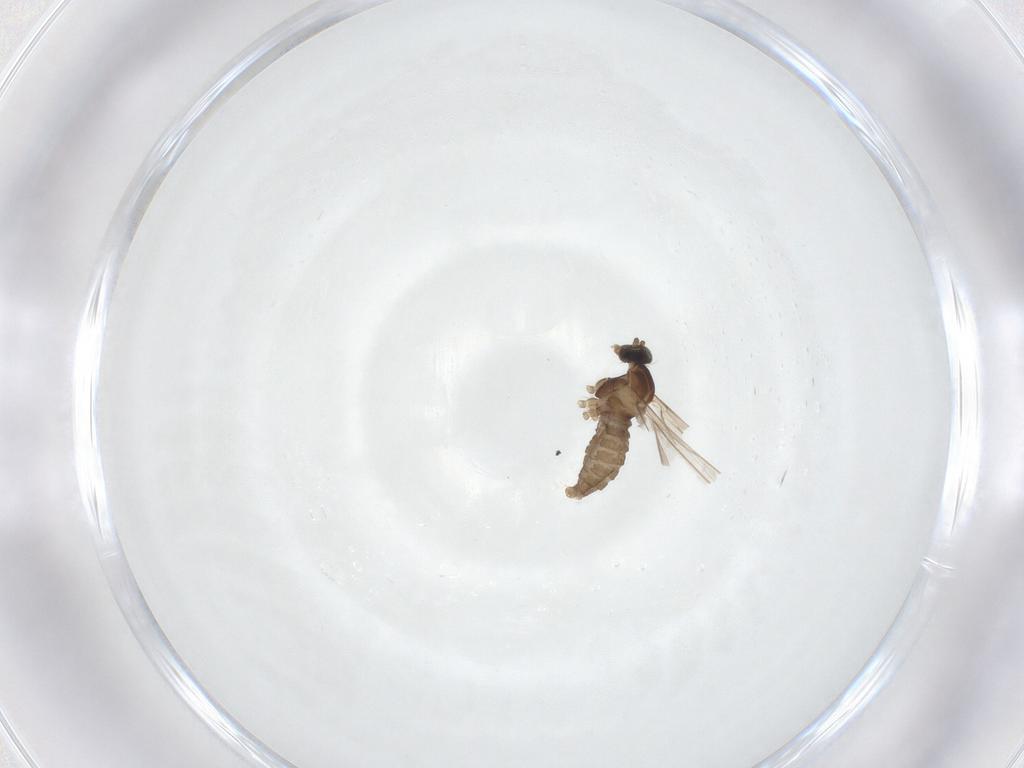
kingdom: Animalia
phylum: Arthropoda
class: Insecta
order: Diptera
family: Cecidomyiidae
